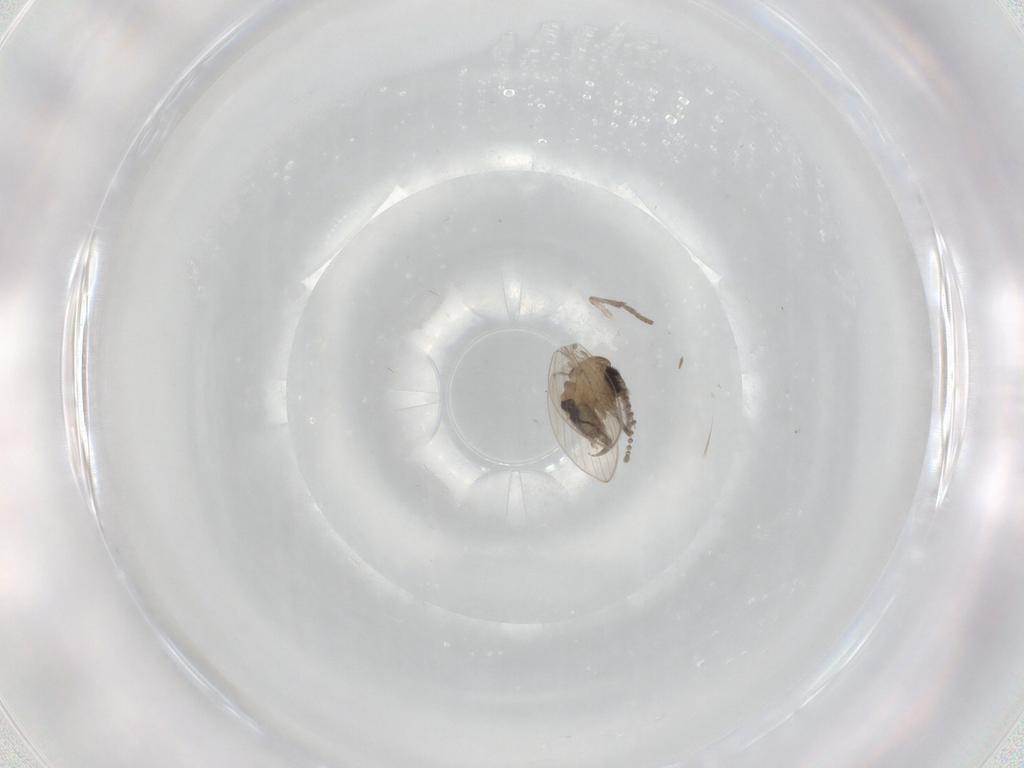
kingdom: Animalia
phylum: Arthropoda
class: Insecta
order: Diptera
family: Psychodidae
